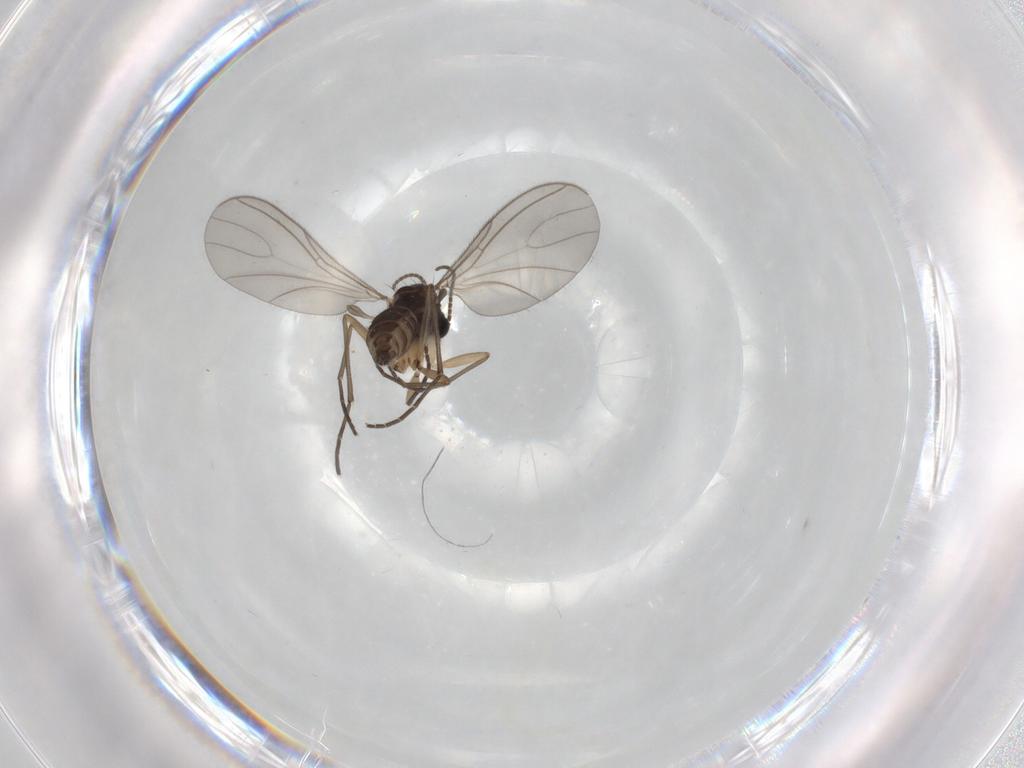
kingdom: Animalia
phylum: Arthropoda
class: Insecta
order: Diptera
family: Sciaridae
